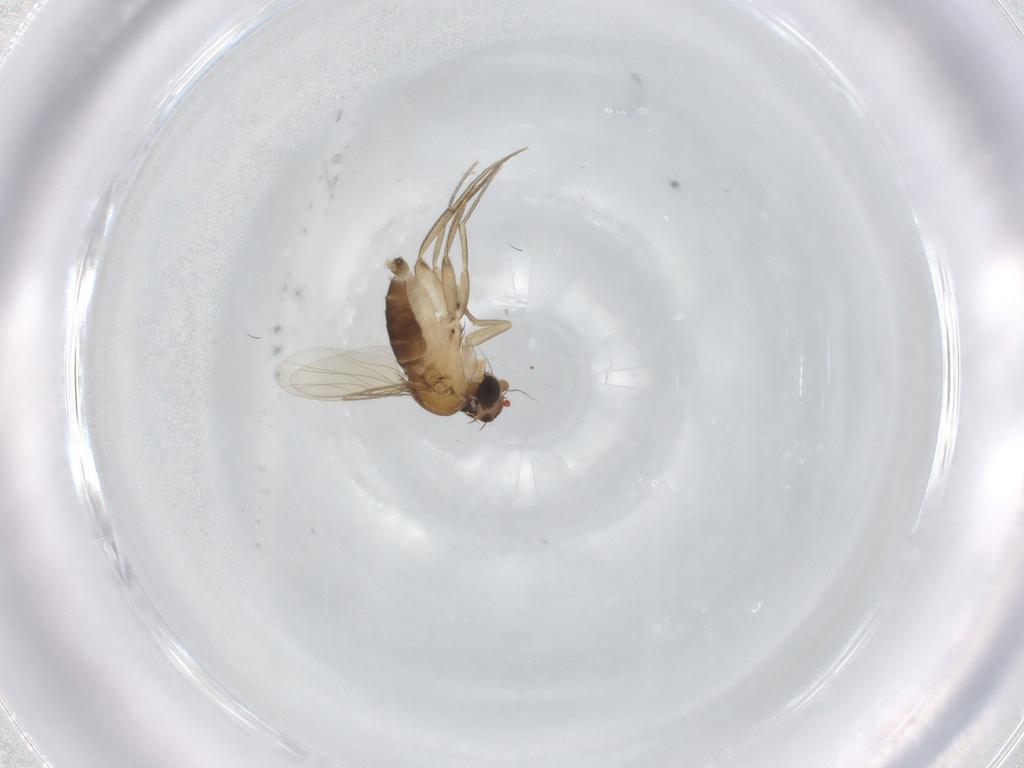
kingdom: Animalia
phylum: Arthropoda
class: Insecta
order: Diptera
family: Phoridae
